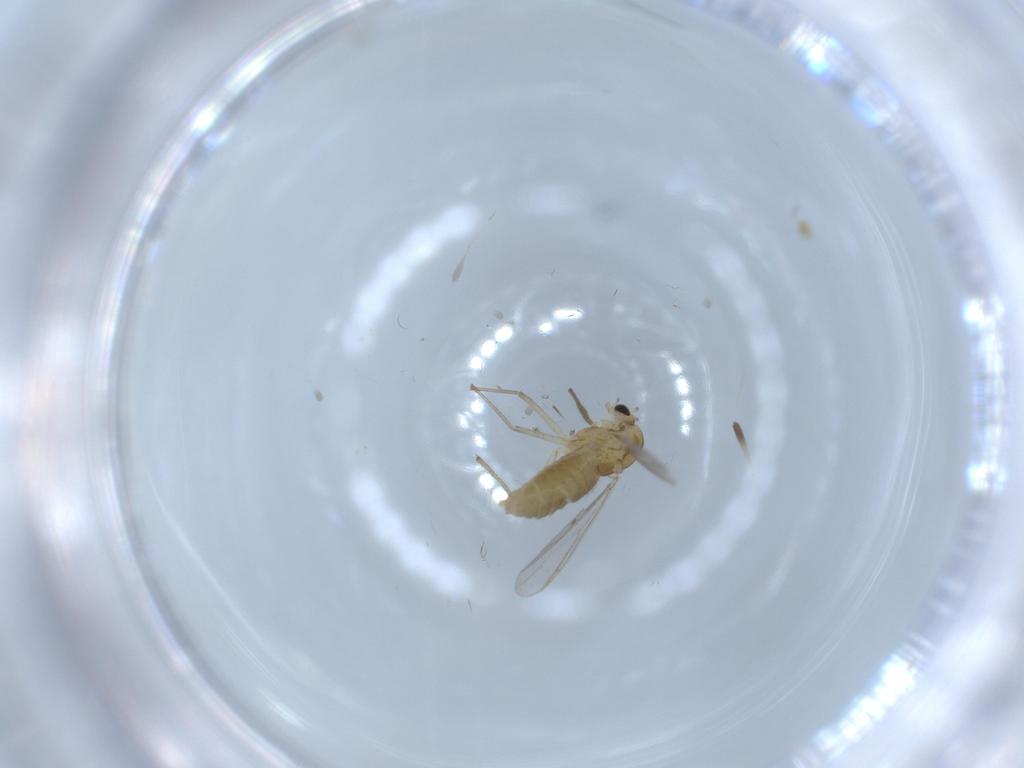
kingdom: Animalia
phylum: Arthropoda
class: Insecta
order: Diptera
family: Chironomidae
